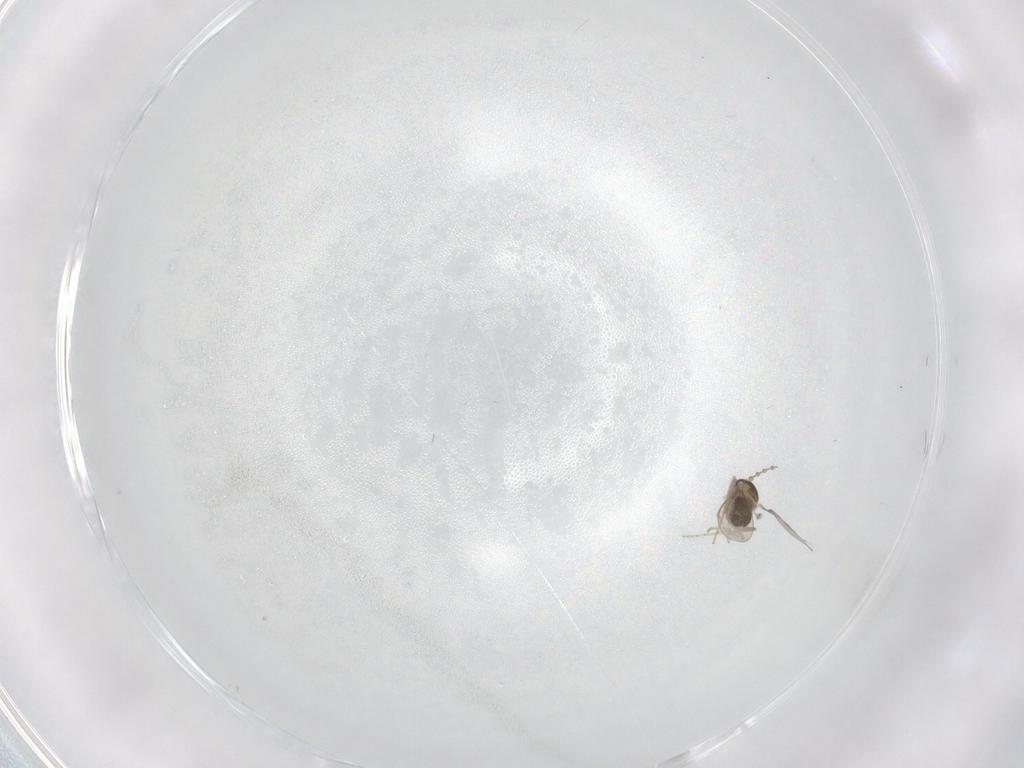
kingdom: Animalia
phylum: Arthropoda
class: Insecta
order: Diptera
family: Cecidomyiidae
